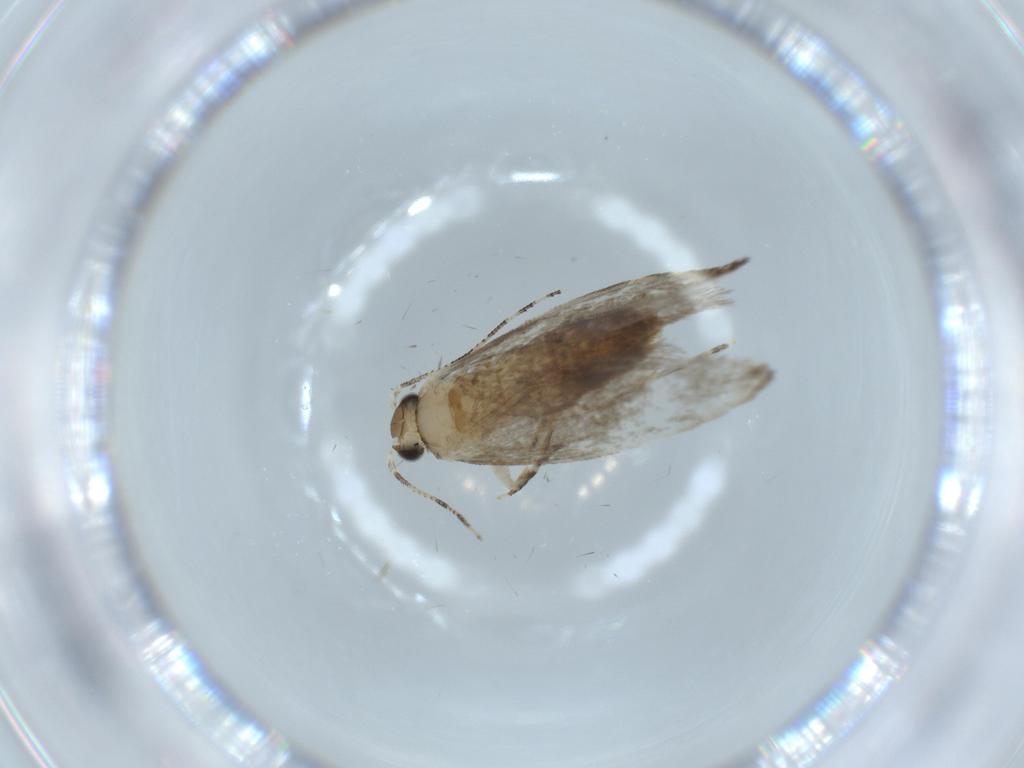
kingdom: Animalia
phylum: Arthropoda
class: Insecta
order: Lepidoptera
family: Tineidae
